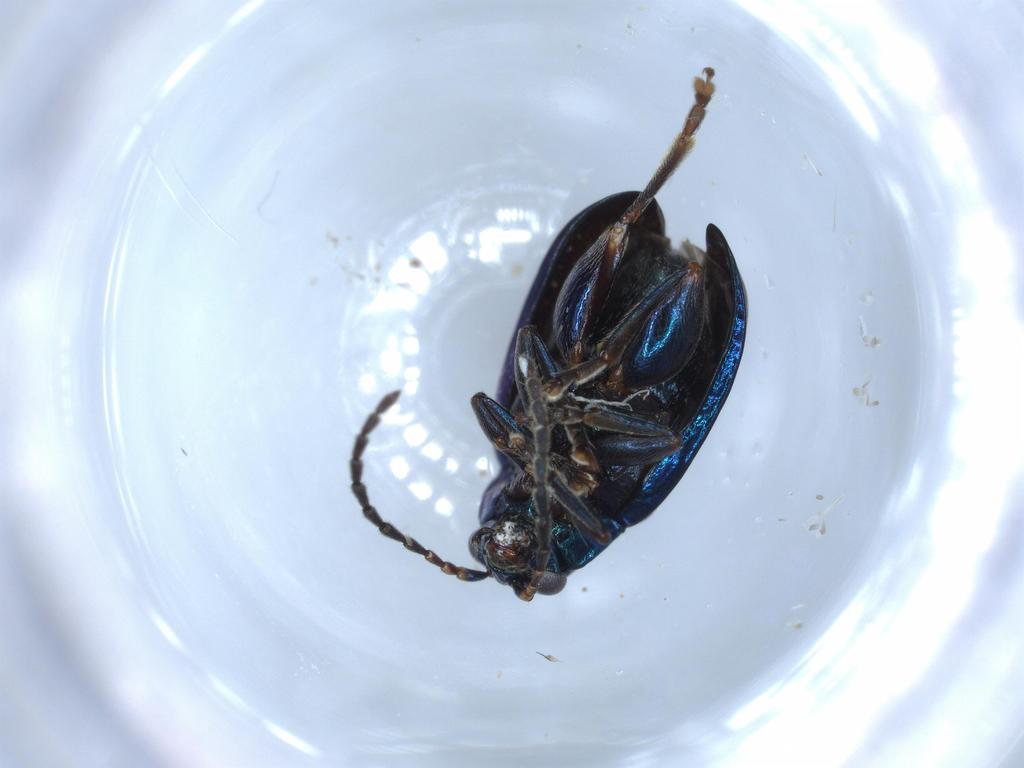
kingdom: Animalia
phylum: Arthropoda
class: Insecta
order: Coleoptera
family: Chrysomelidae
